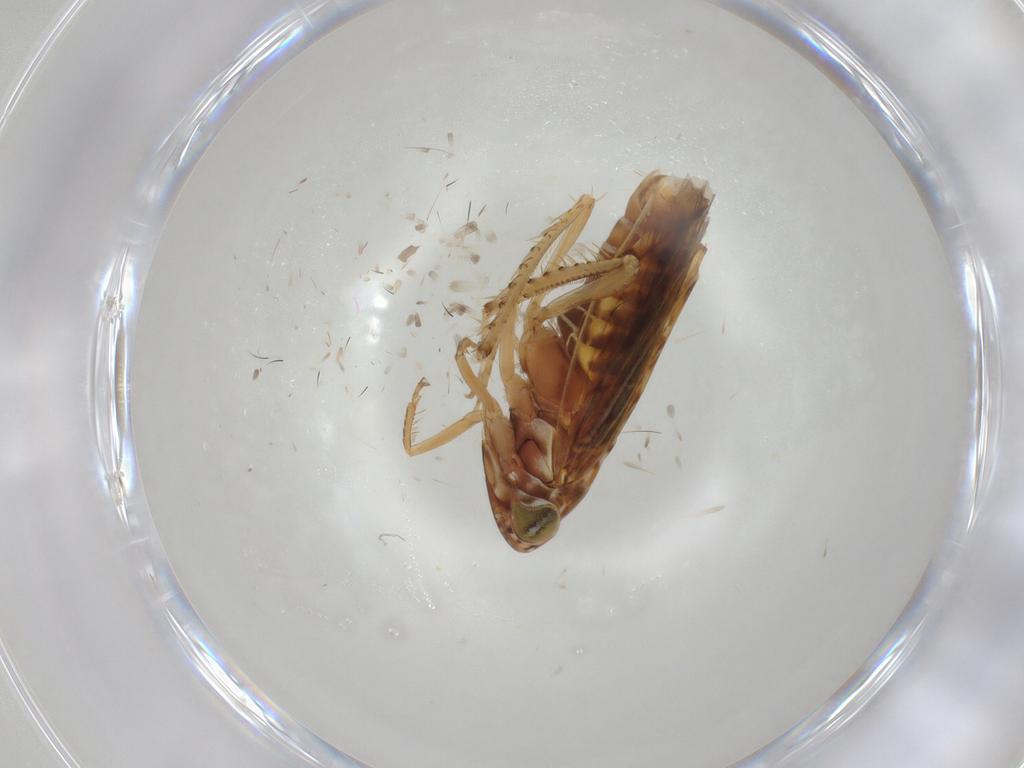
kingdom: Animalia
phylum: Arthropoda
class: Insecta
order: Hemiptera
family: Cicadellidae
